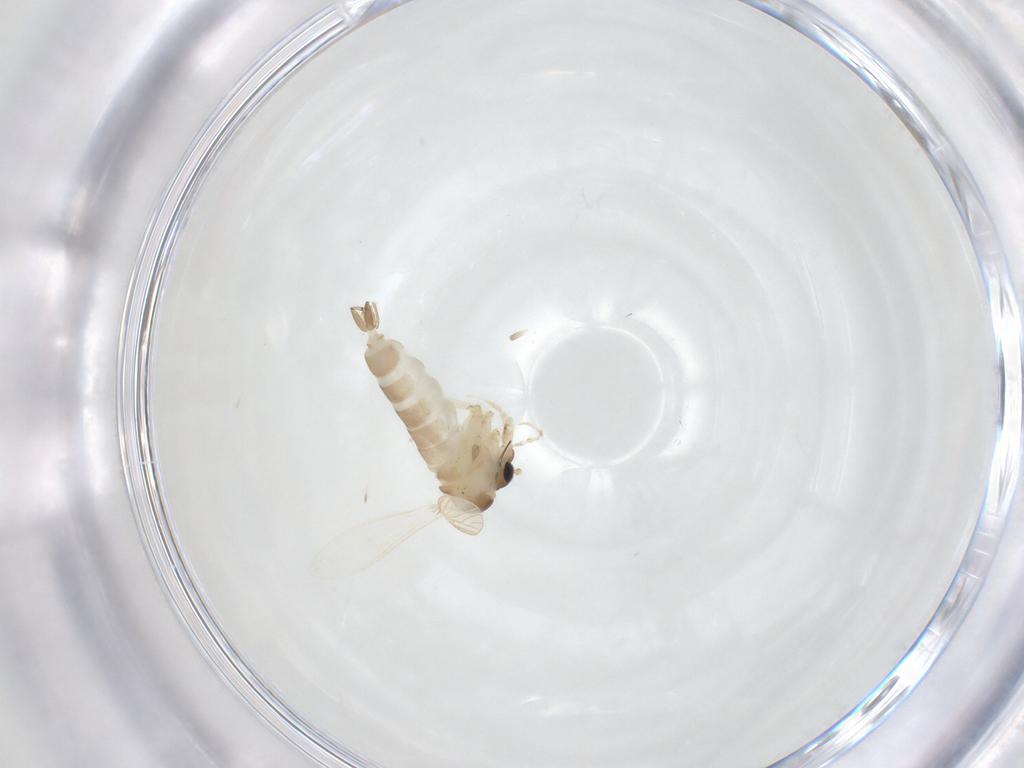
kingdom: Animalia
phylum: Arthropoda
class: Insecta
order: Diptera
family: Psychodidae
